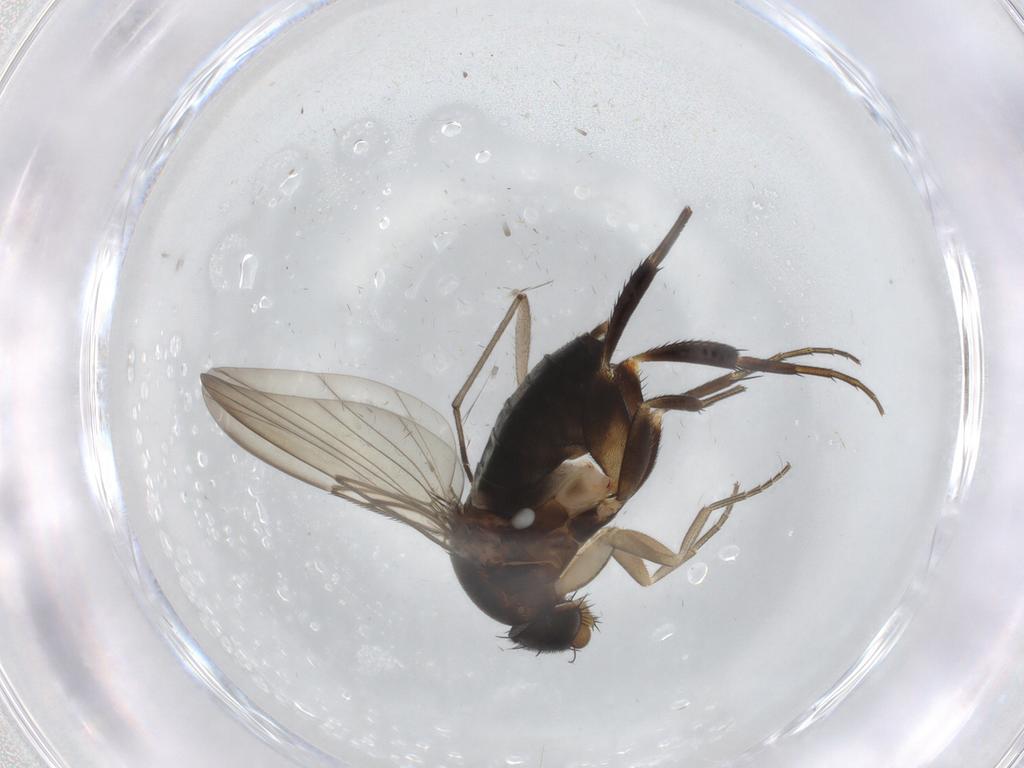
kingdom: Animalia
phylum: Arthropoda
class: Insecta
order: Diptera
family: Phoridae
